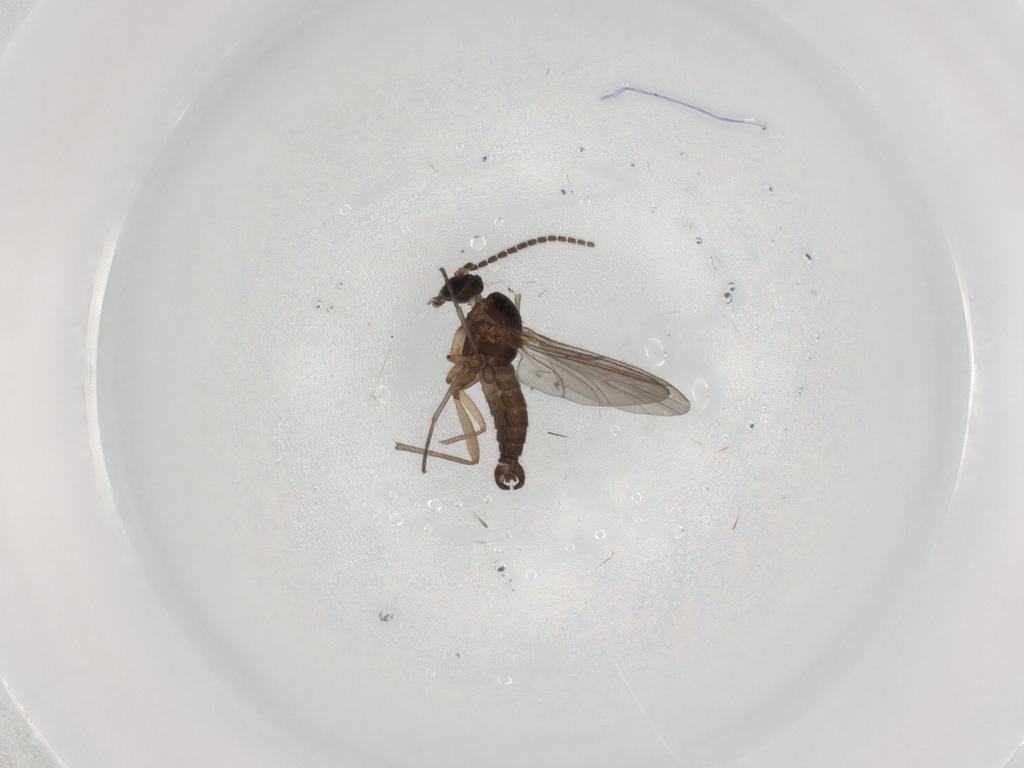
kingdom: Animalia
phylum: Arthropoda
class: Insecta
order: Diptera
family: Sciaridae
